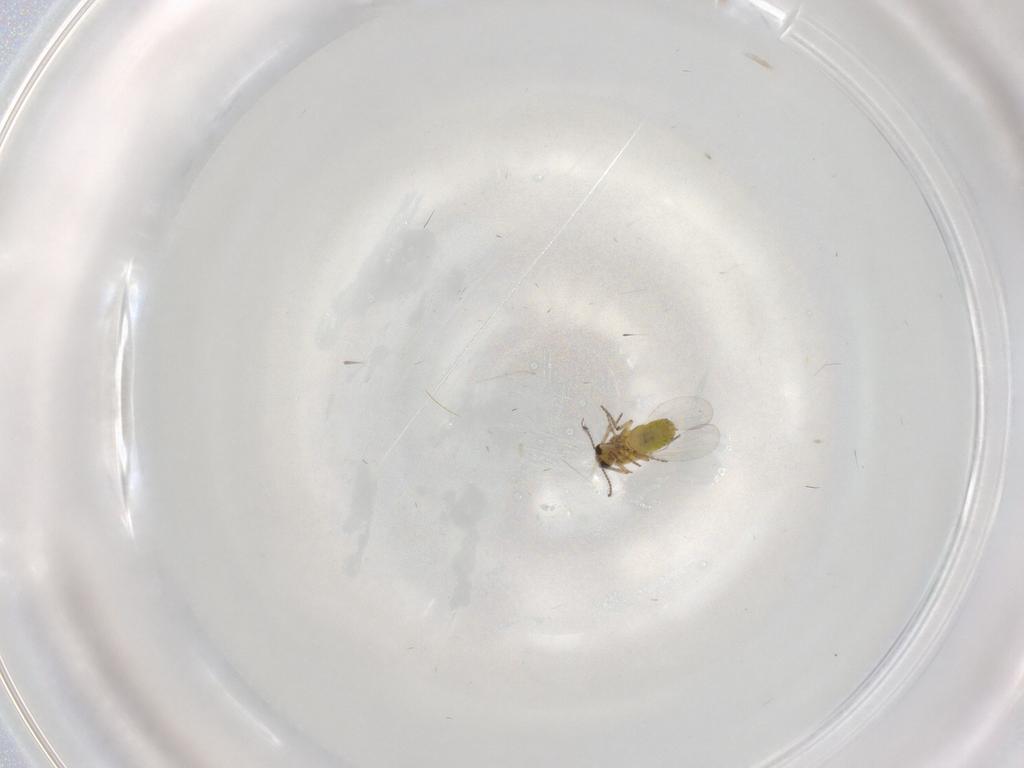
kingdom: Animalia
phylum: Arthropoda
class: Insecta
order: Diptera
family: Ceratopogonidae
